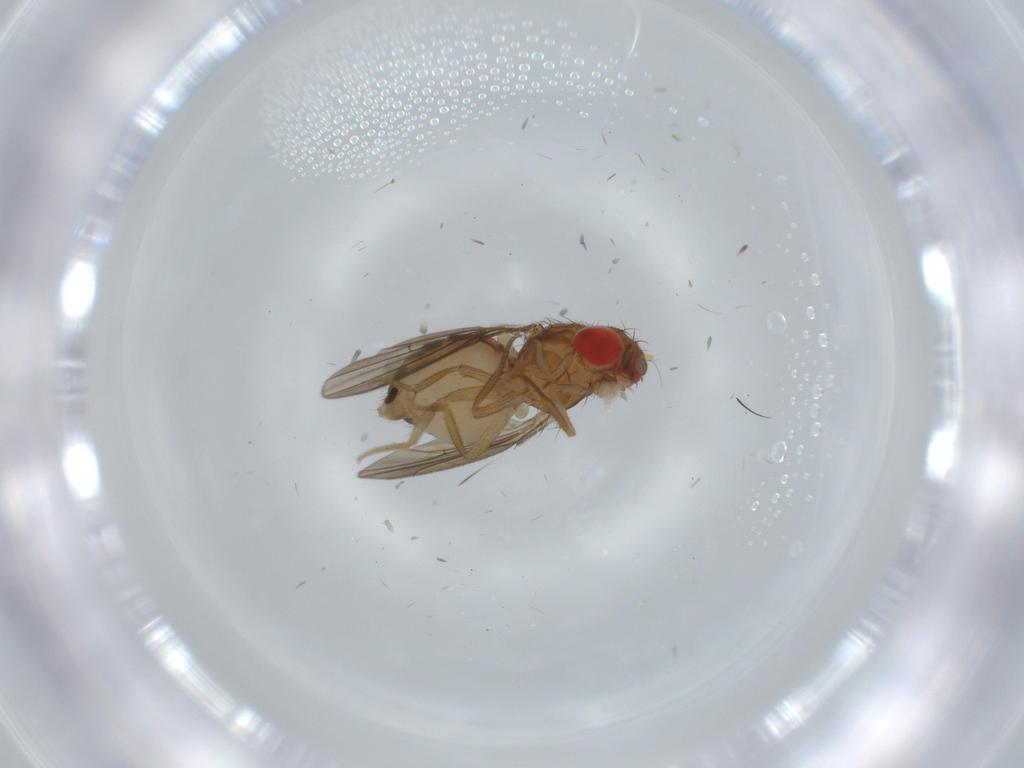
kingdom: Animalia
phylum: Arthropoda
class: Insecta
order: Diptera
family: Drosophilidae
